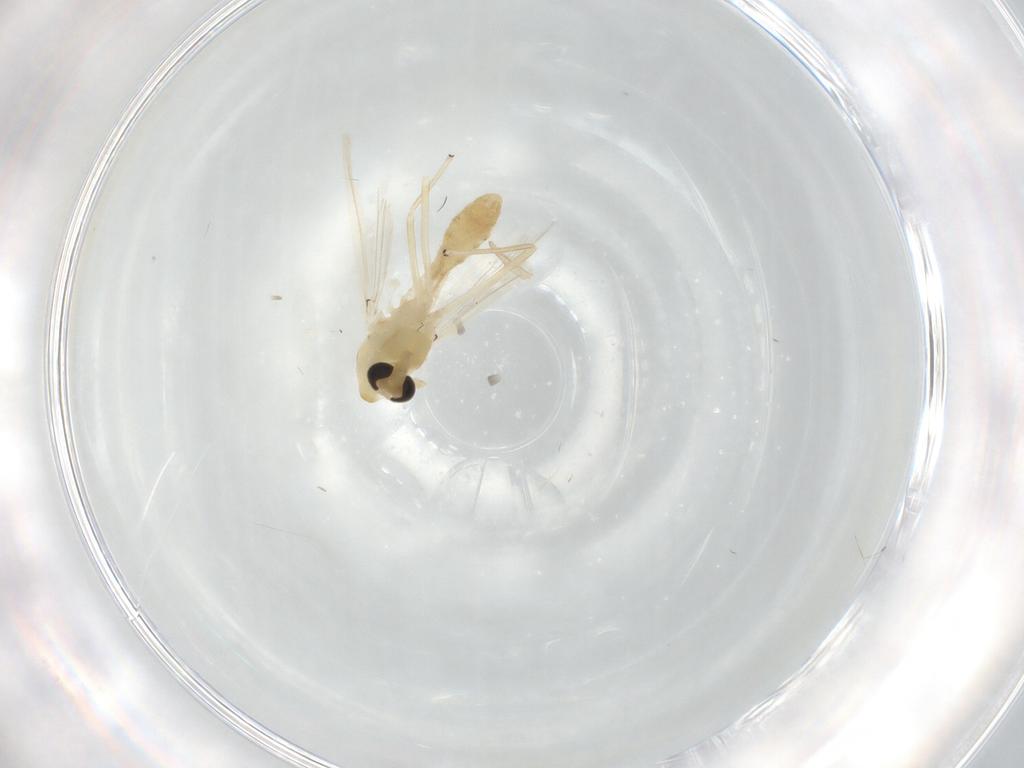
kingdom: Animalia
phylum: Arthropoda
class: Insecta
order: Diptera
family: Chironomidae
